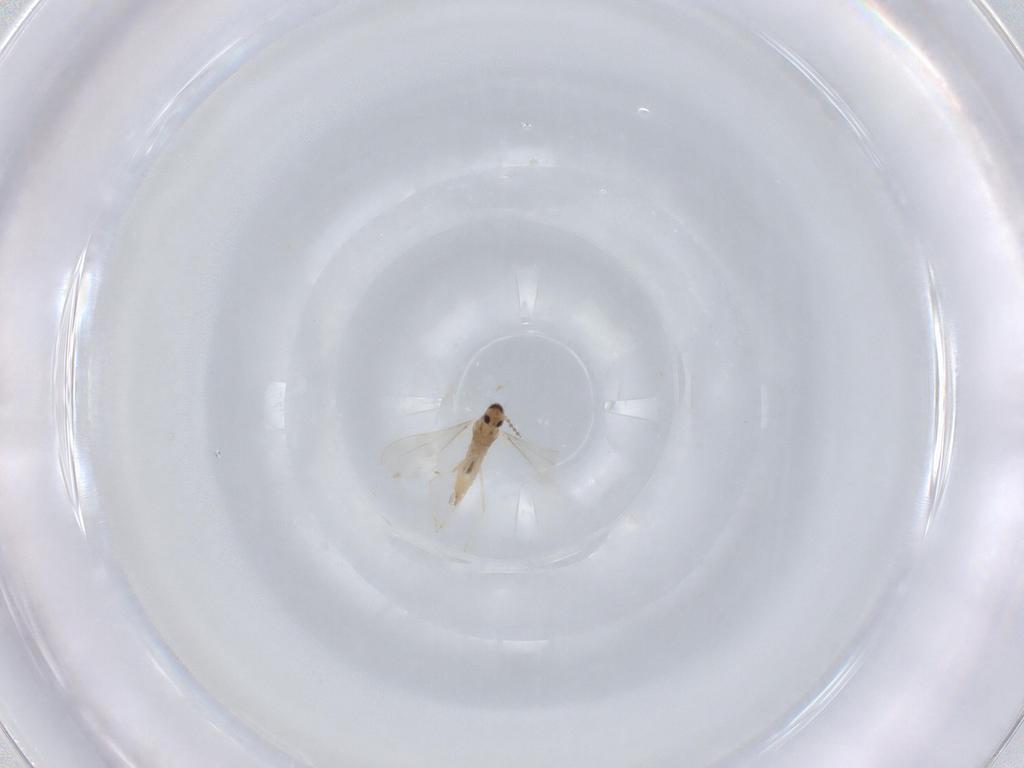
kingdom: Animalia
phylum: Arthropoda
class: Insecta
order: Diptera
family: Cecidomyiidae
